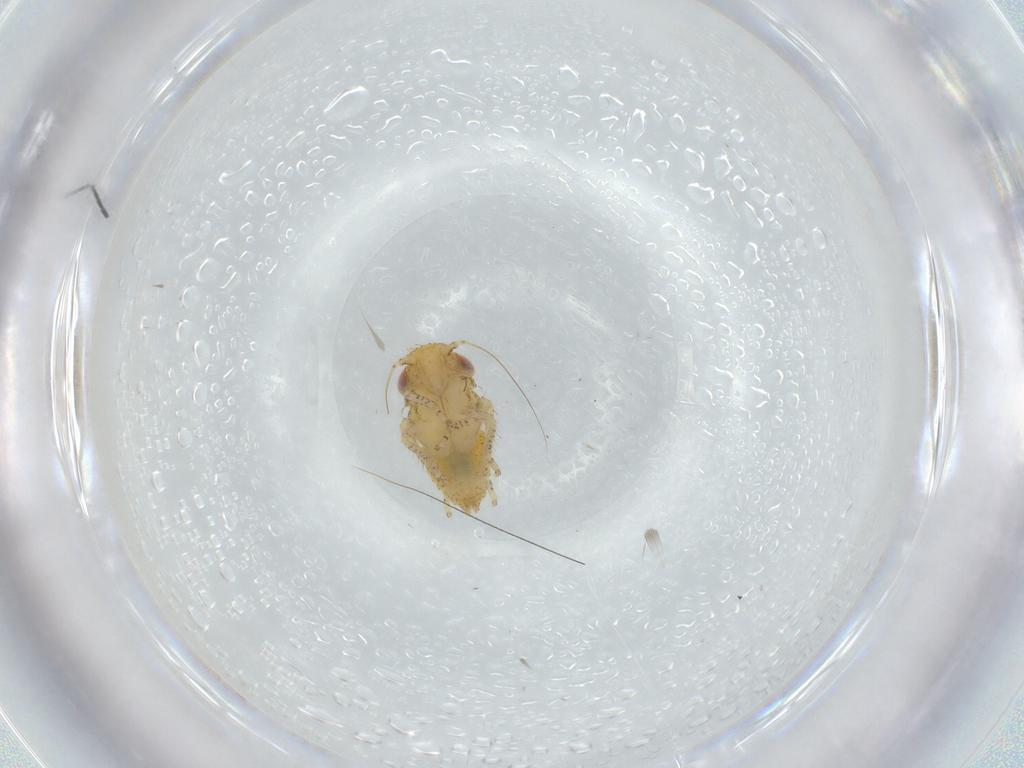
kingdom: Animalia
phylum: Arthropoda
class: Insecta
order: Hemiptera
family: Cicadellidae
